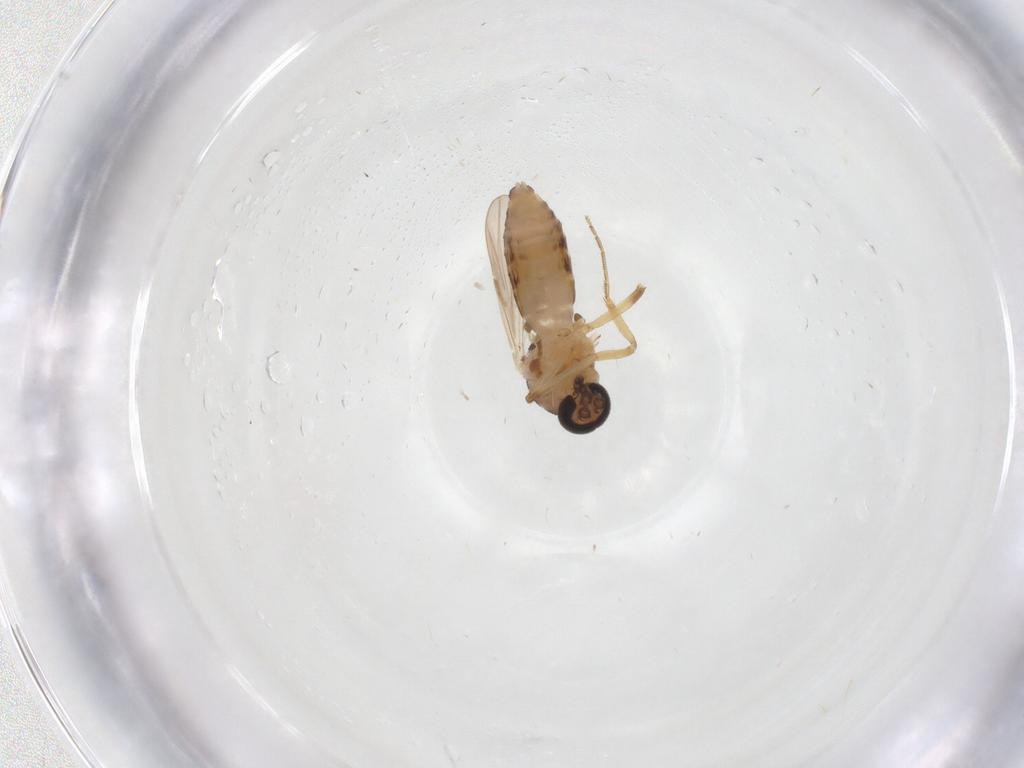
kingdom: Animalia
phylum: Arthropoda
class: Insecta
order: Diptera
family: Ceratopogonidae
